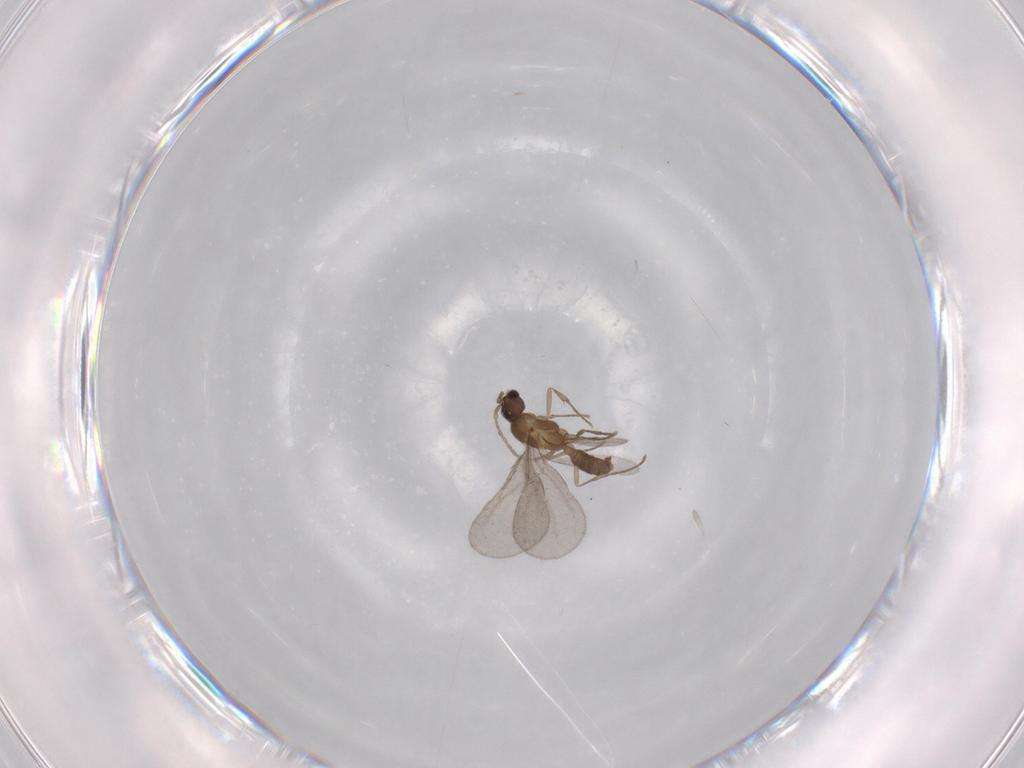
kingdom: Animalia
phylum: Arthropoda
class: Insecta
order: Hymenoptera
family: Formicidae
